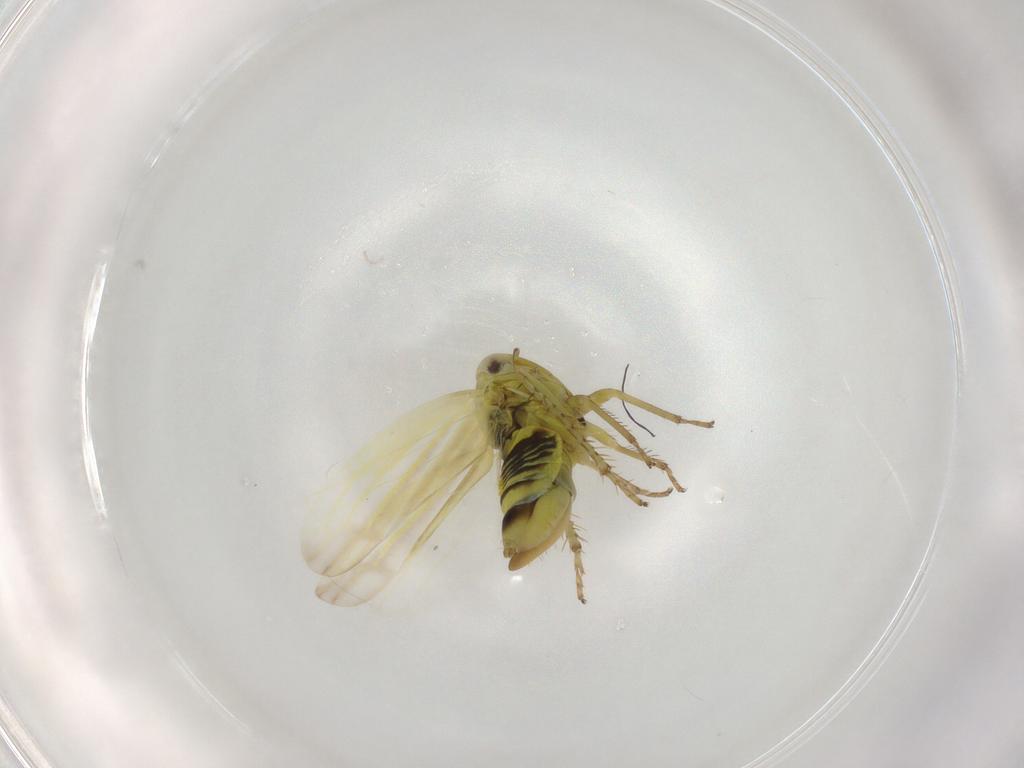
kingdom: Animalia
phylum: Arthropoda
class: Insecta
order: Hemiptera
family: Cicadellidae
